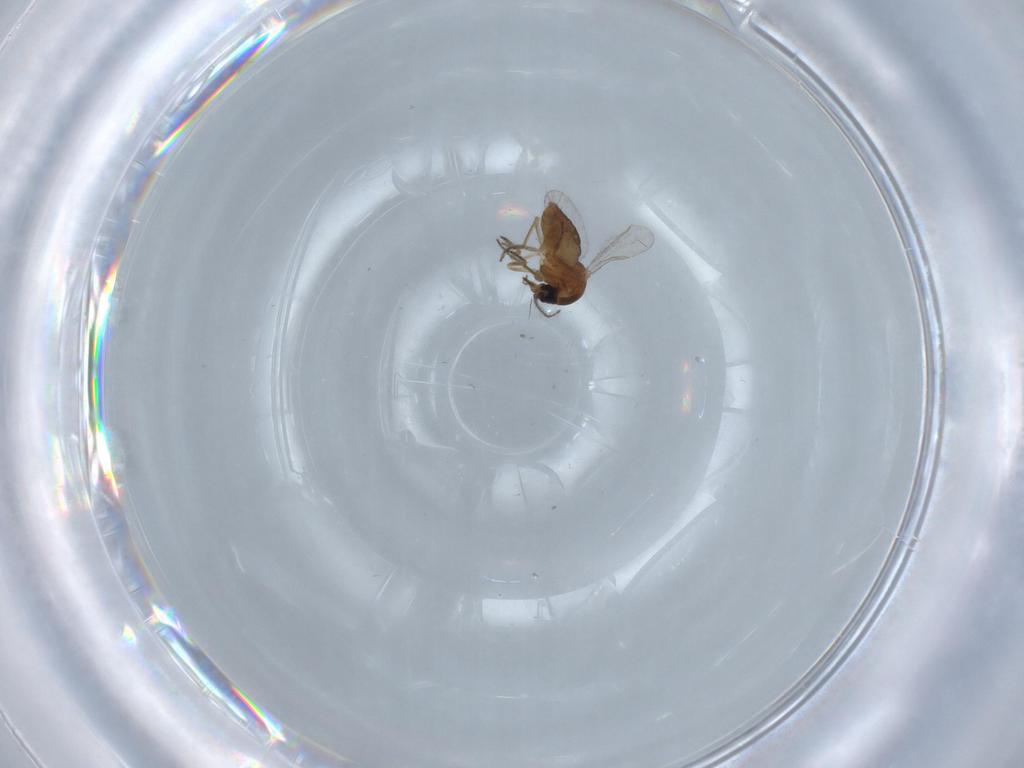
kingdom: Animalia
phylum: Arthropoda
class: Insecta
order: Diptera
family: Ceratopogonidae
